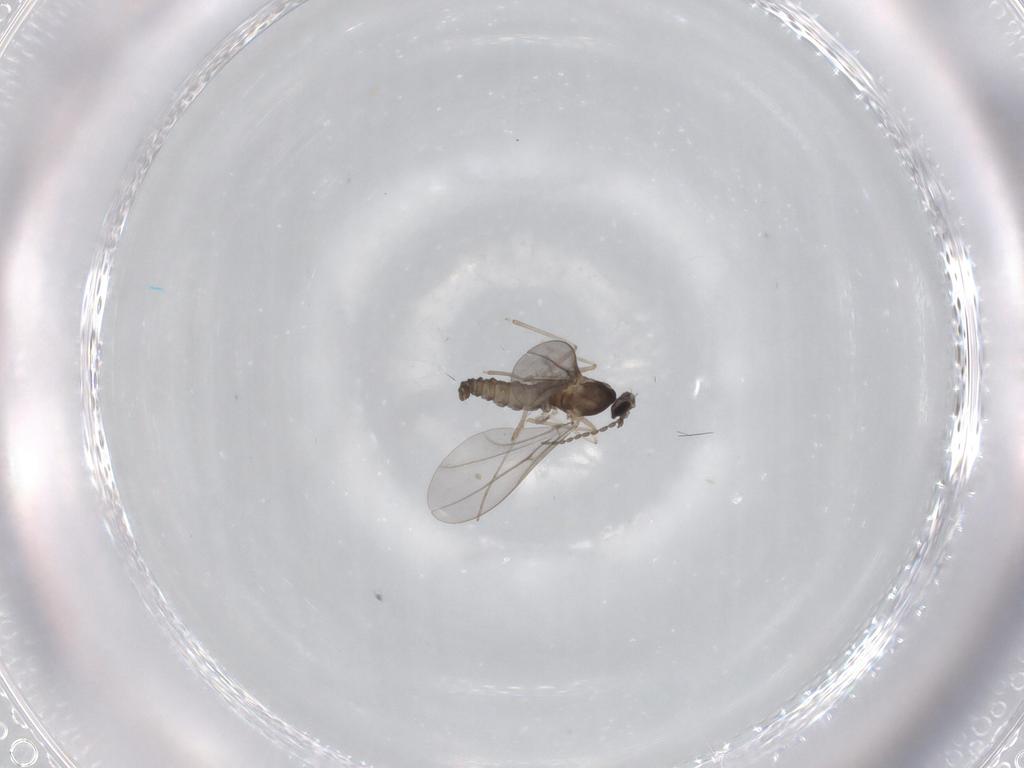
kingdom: Animalia
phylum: Arthropoda
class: Insecta
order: Diptera
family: Cecidomyiidae
